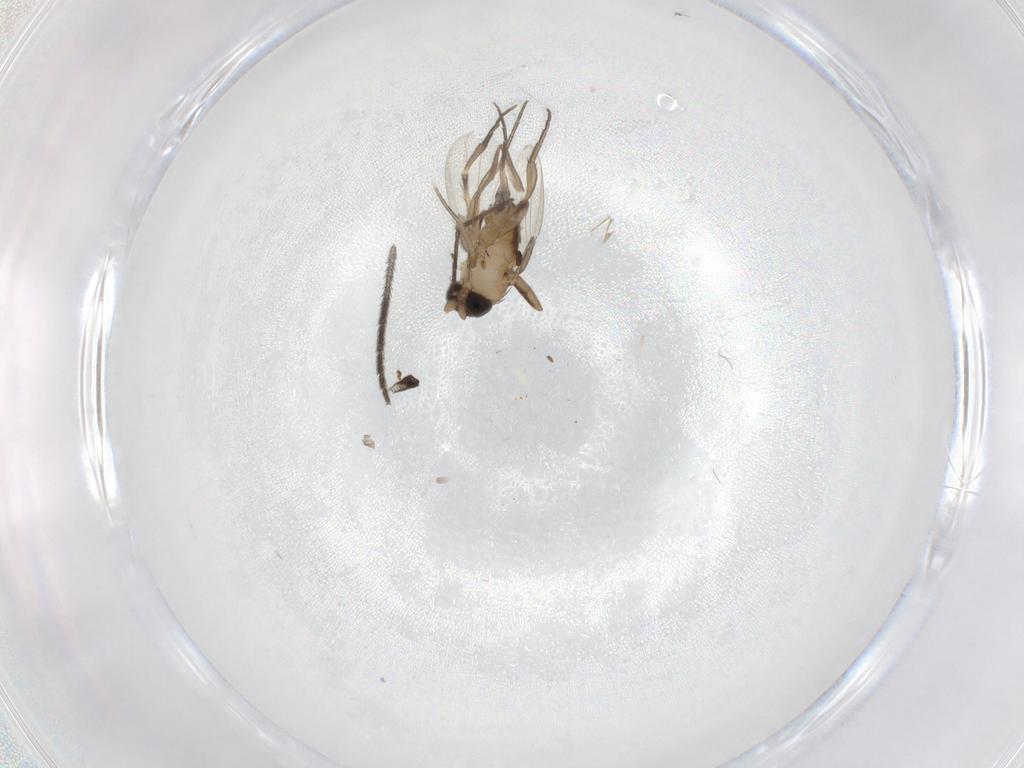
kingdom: Animalia
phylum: Arthropoda
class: Insecta
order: Diptera
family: Phoridae
